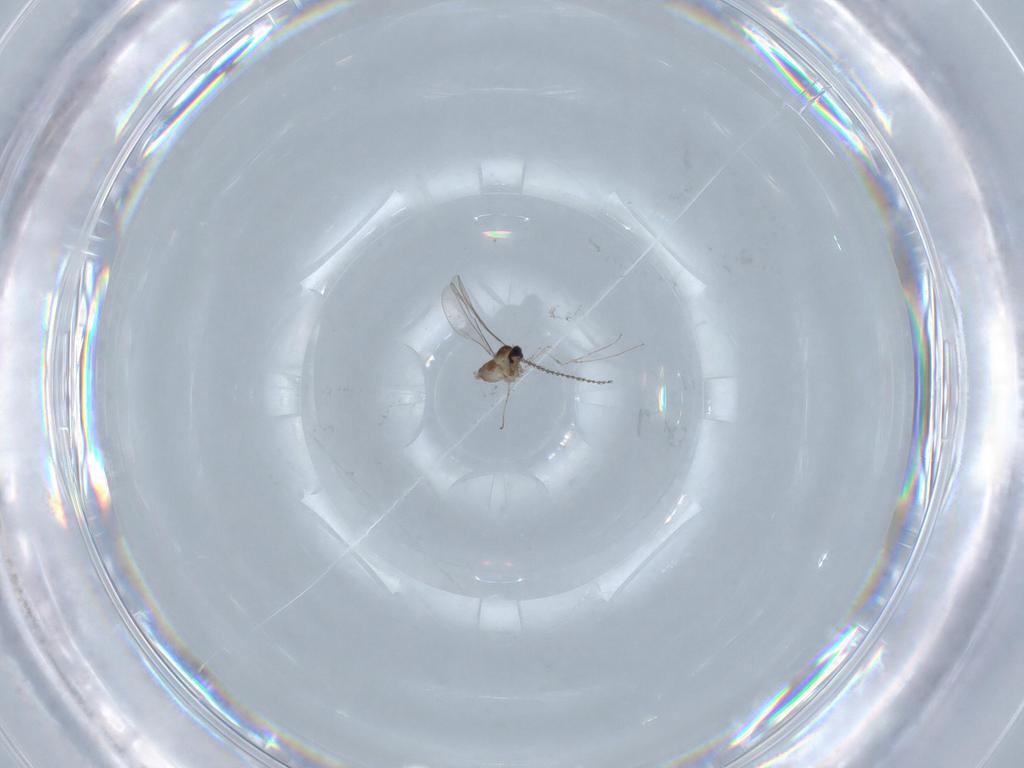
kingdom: Animalia
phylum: Arthropoda
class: Insecta
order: Diptera
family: Cecidomyiidae
